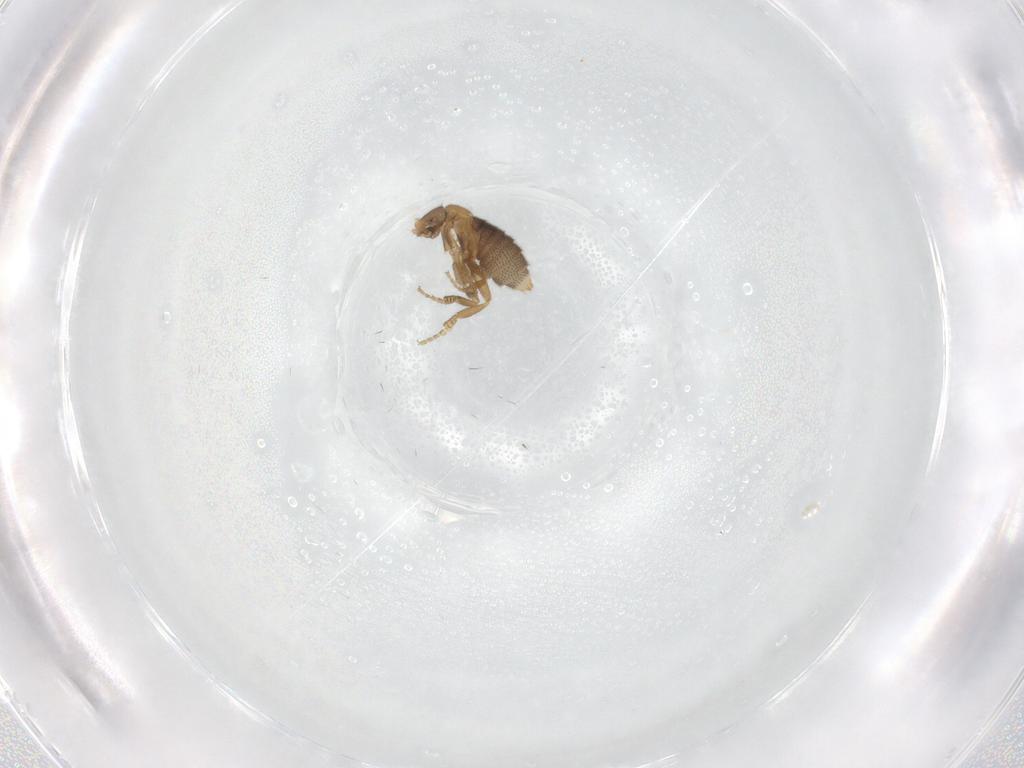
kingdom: Animalia
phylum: Arthropoda
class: Insecta
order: Diptera
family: Phoridae
